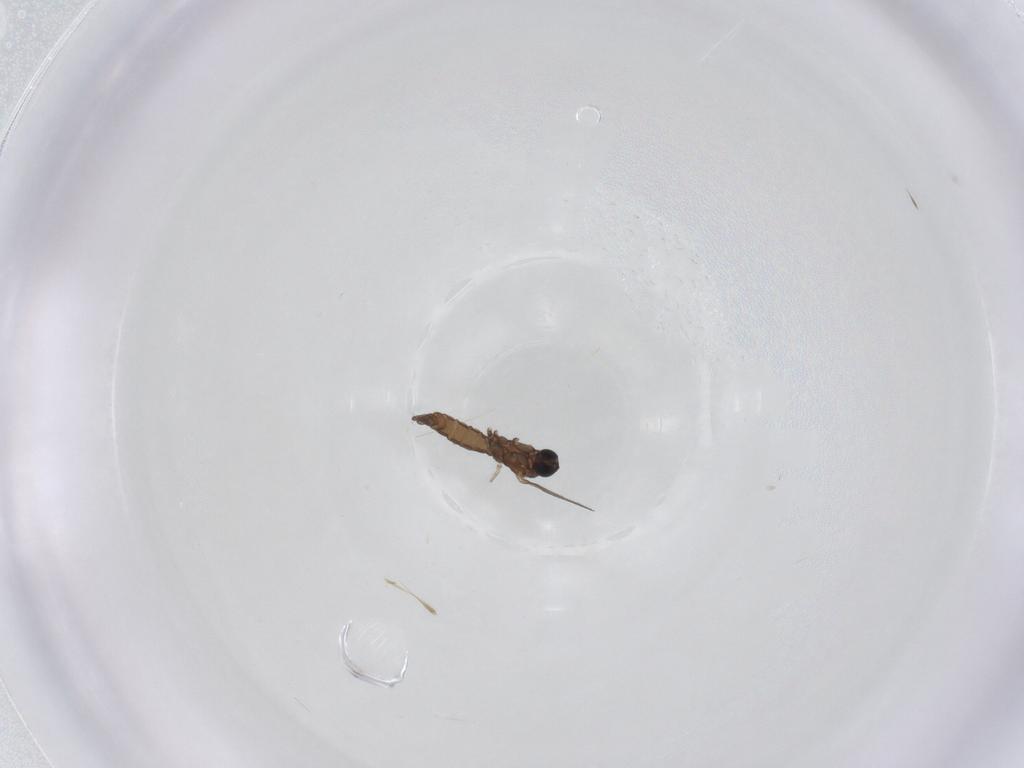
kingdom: Animalia
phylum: Arthropoda
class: Insecta
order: Diptera
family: Sciaridae
